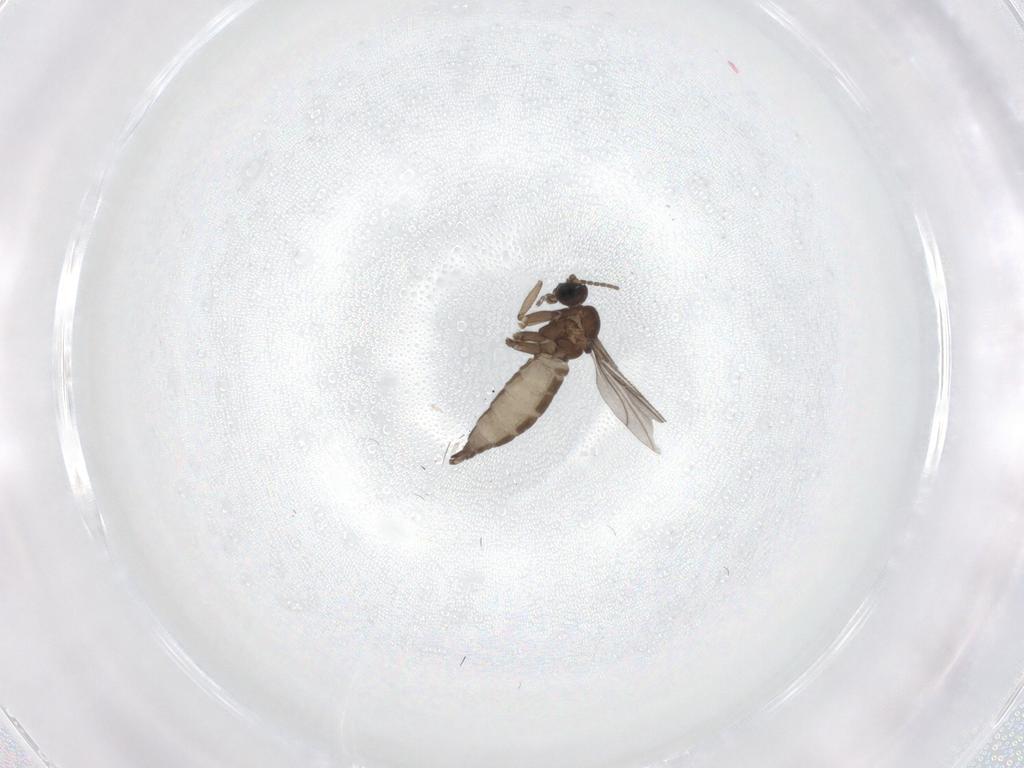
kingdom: Animalia
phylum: Arthropoda
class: Insecta
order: Diptera
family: Sciaridae
